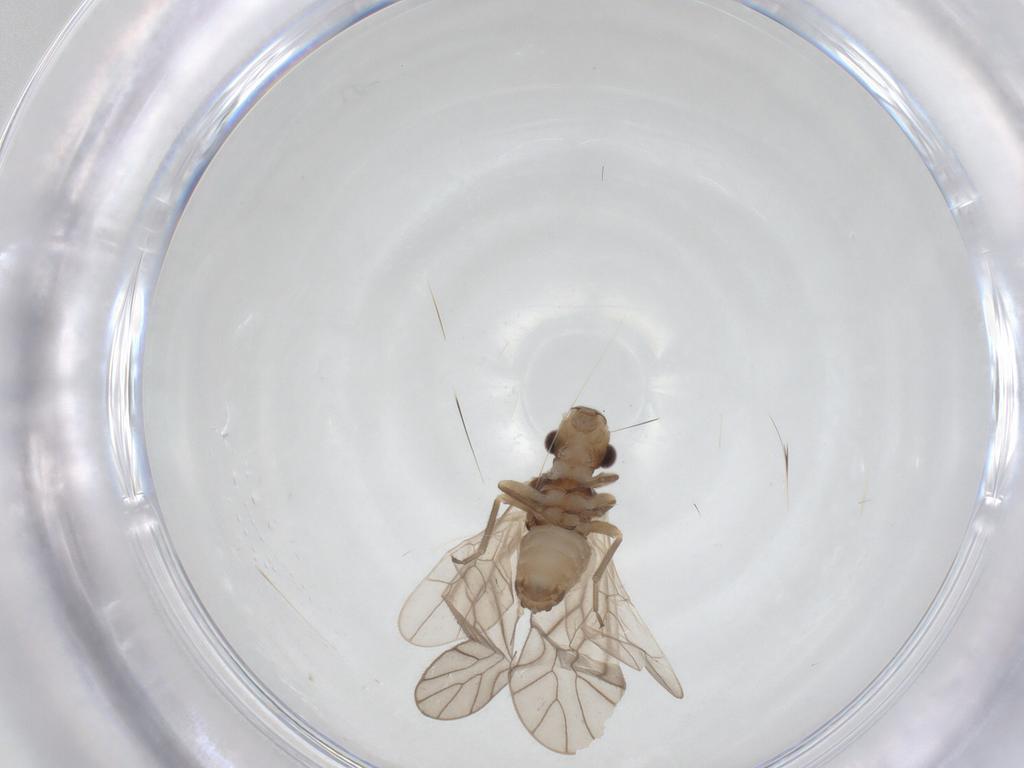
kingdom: Animalia
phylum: Arthropoda
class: Insecta
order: Psocodea
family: Philotarsidae
